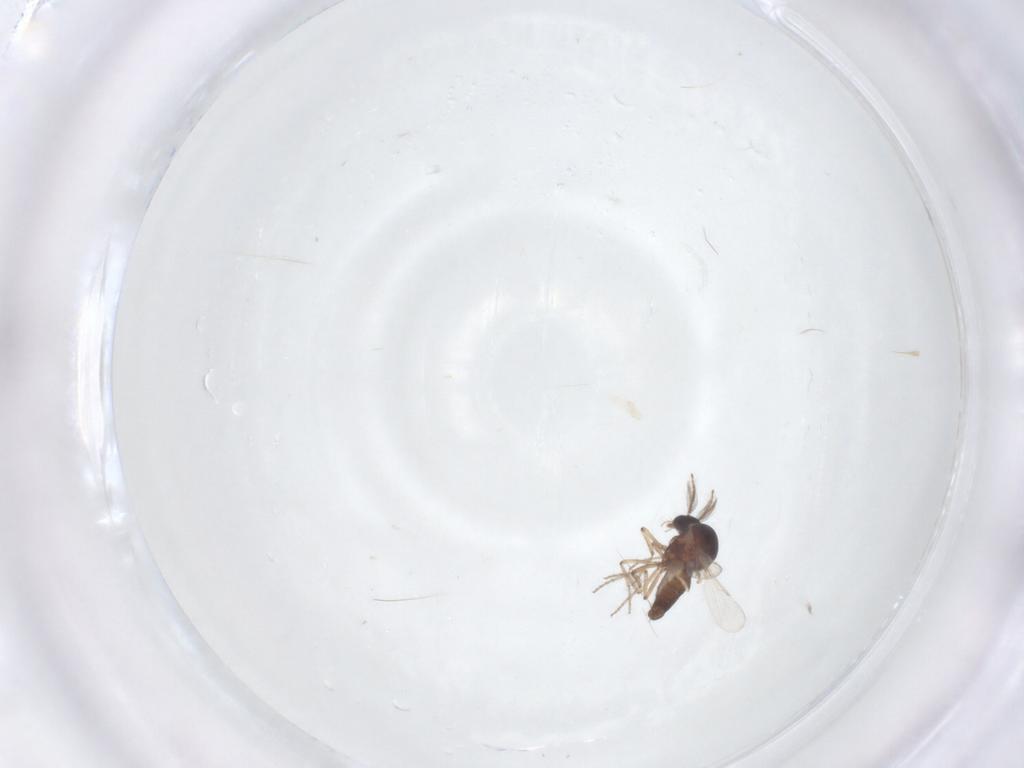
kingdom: Animalia
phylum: Arthropoda
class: Insecta
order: Diptera
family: Ceratopogonidae
